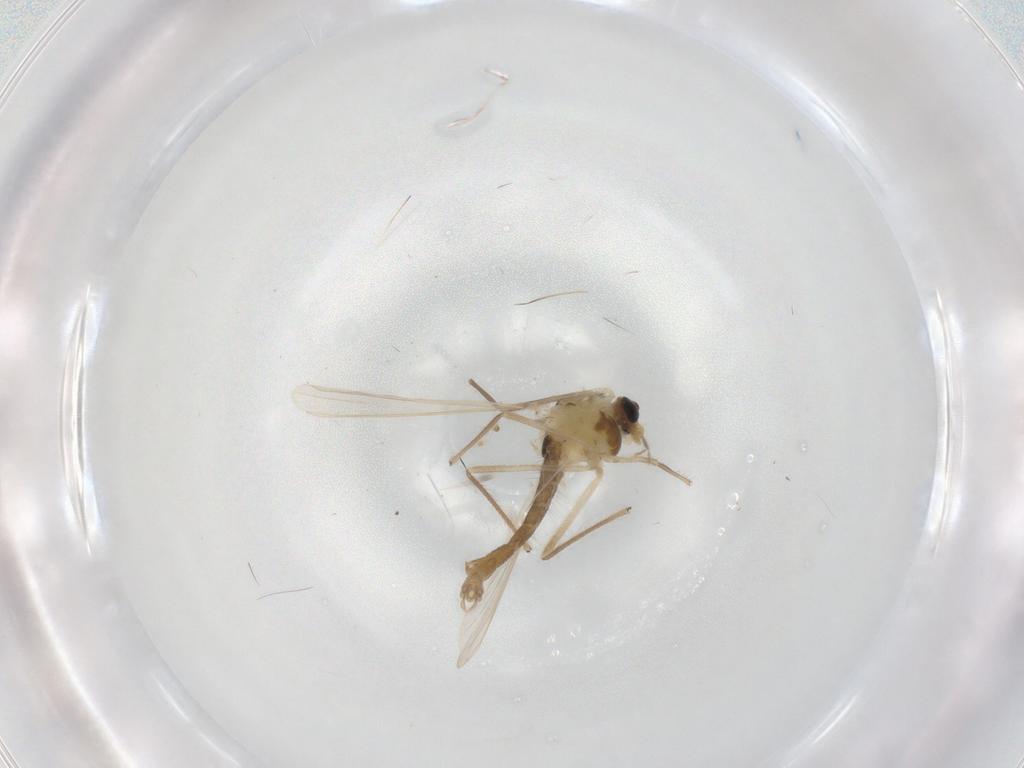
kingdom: Animalia
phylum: Arthropoda
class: Insecta
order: Diptera
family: Chironomidae
